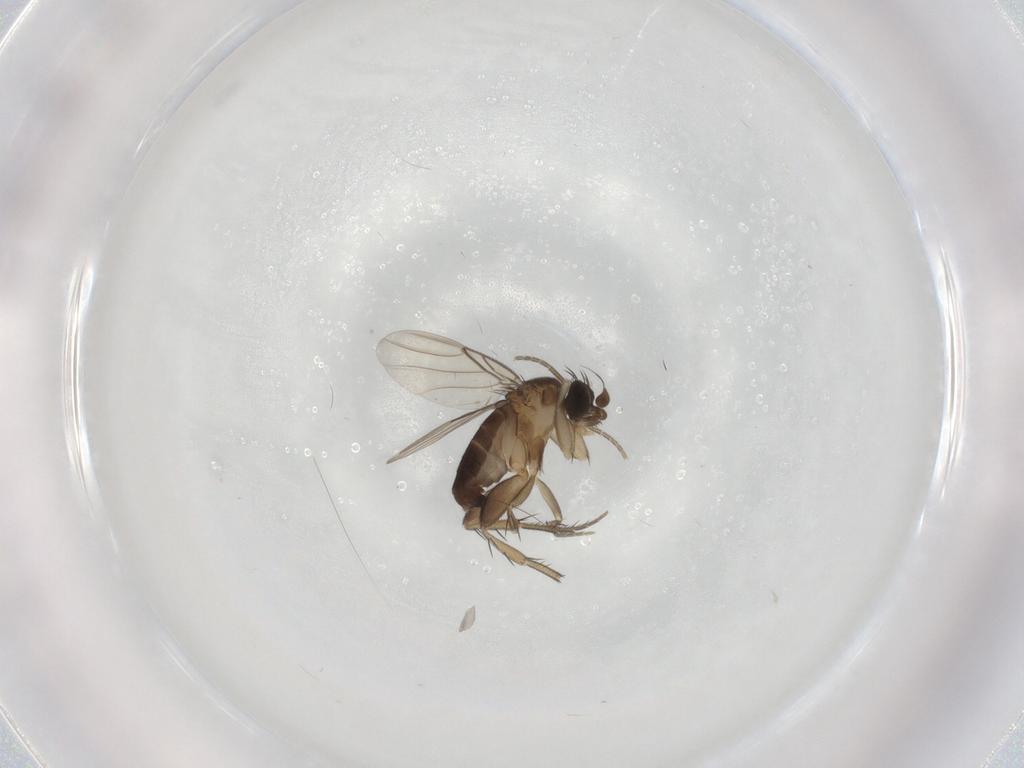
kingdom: Animalia
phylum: Arthropoda
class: Insecta
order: Diptera
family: Phoridae
